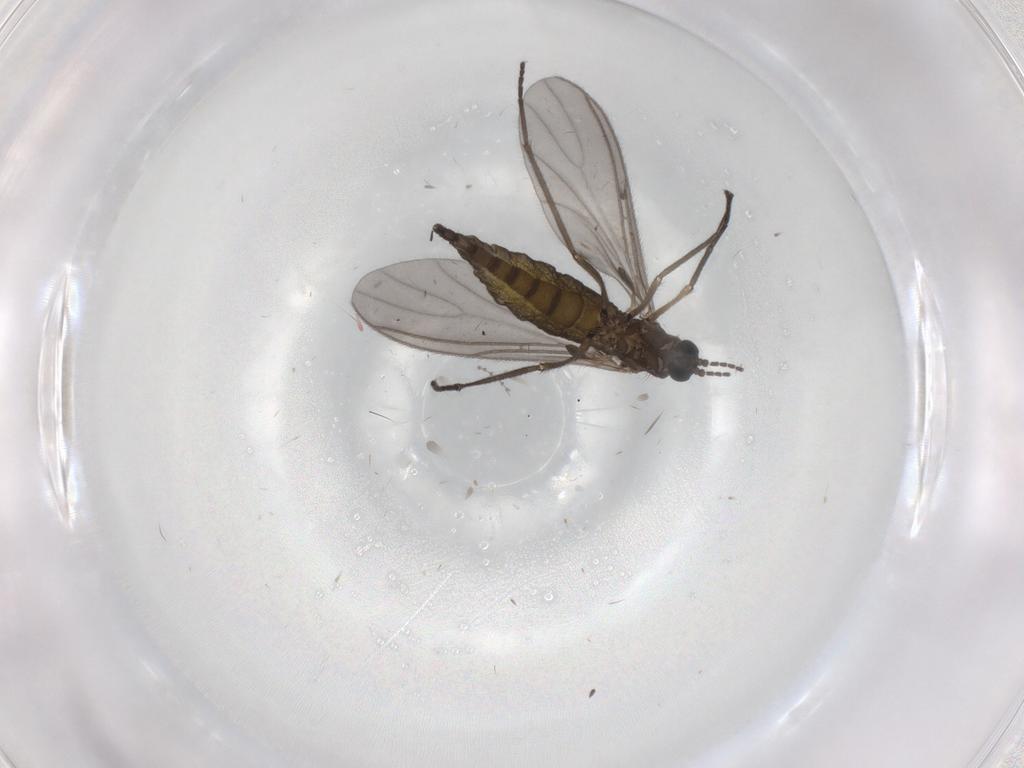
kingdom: Animalia
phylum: Arthropoda
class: Insecta
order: Diptera
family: Sciaridae
